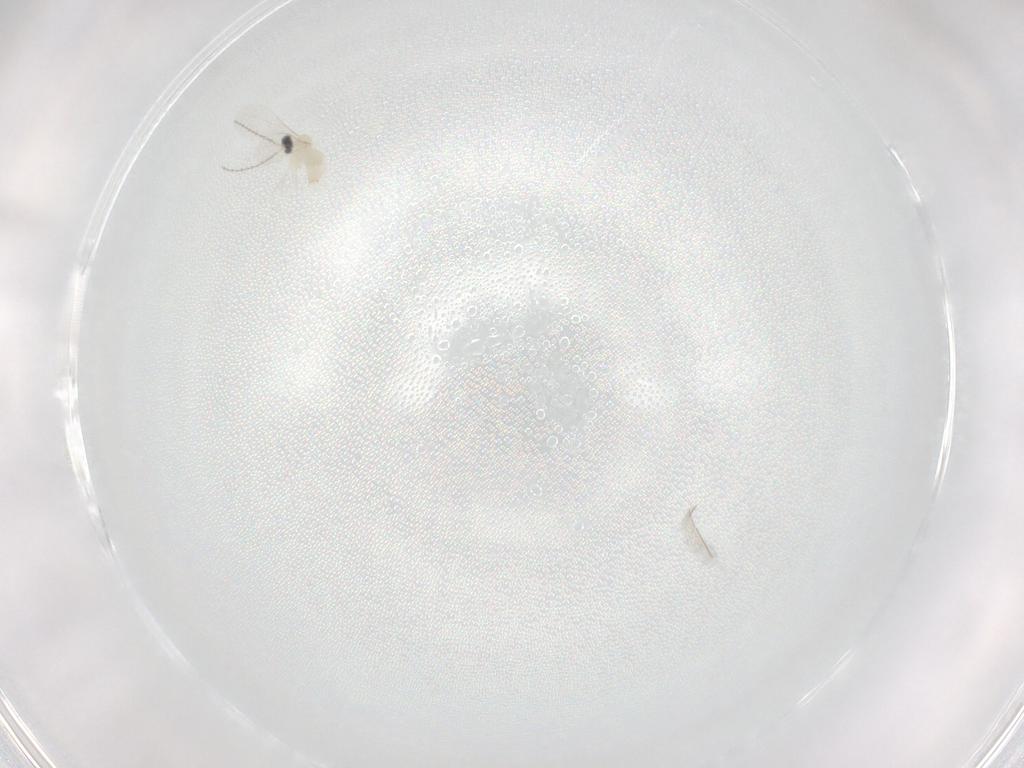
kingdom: Animalia
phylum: Arthropoda
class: Insecta
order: Diptera
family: Cecidomyiidae
